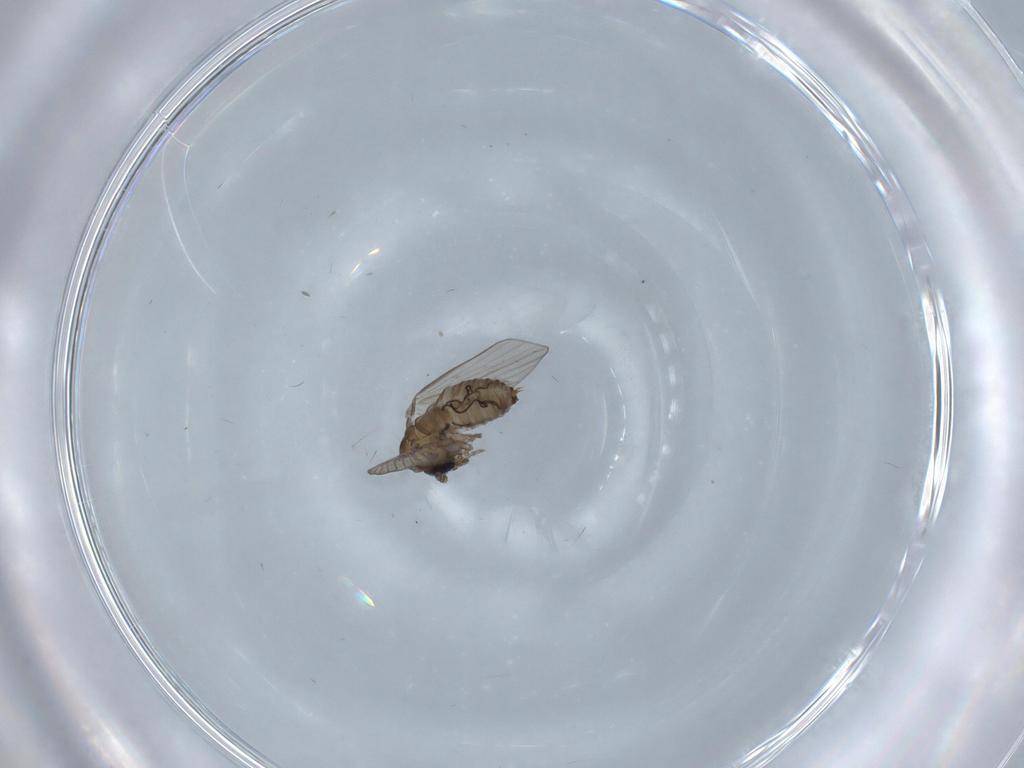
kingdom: Animalia
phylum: Arthropoda
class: Insecta
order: Diptera
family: Psychodidae
